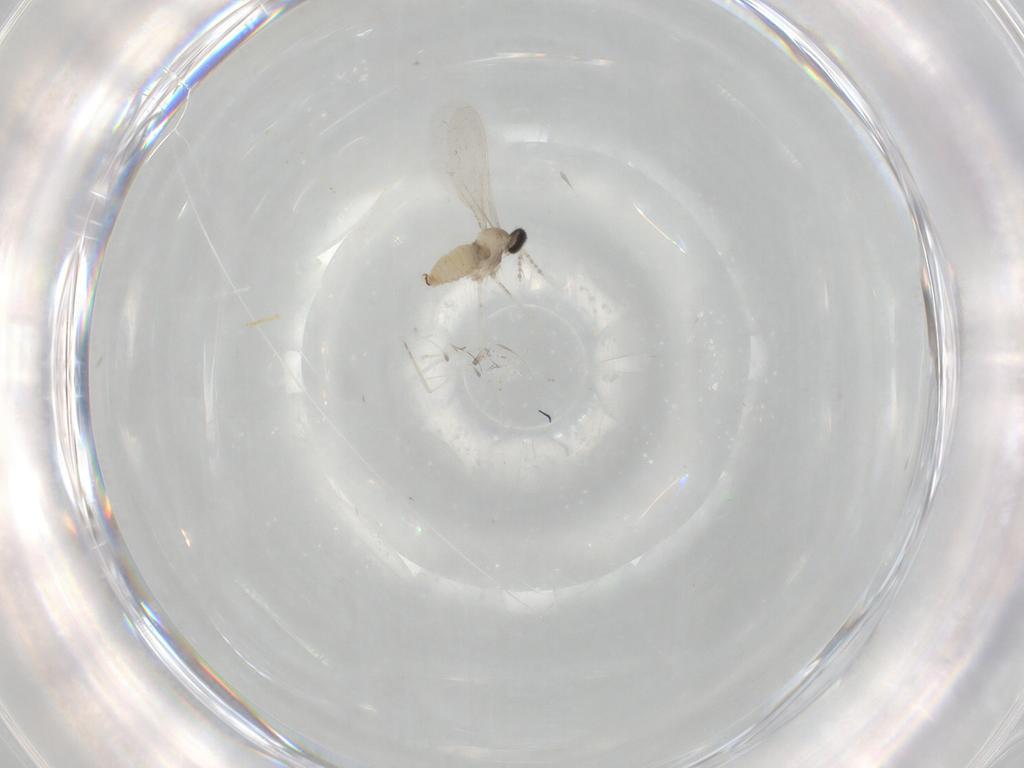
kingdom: Animalia
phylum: Arthropoda
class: Insecta
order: Diptera
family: Cecidomyiidae
